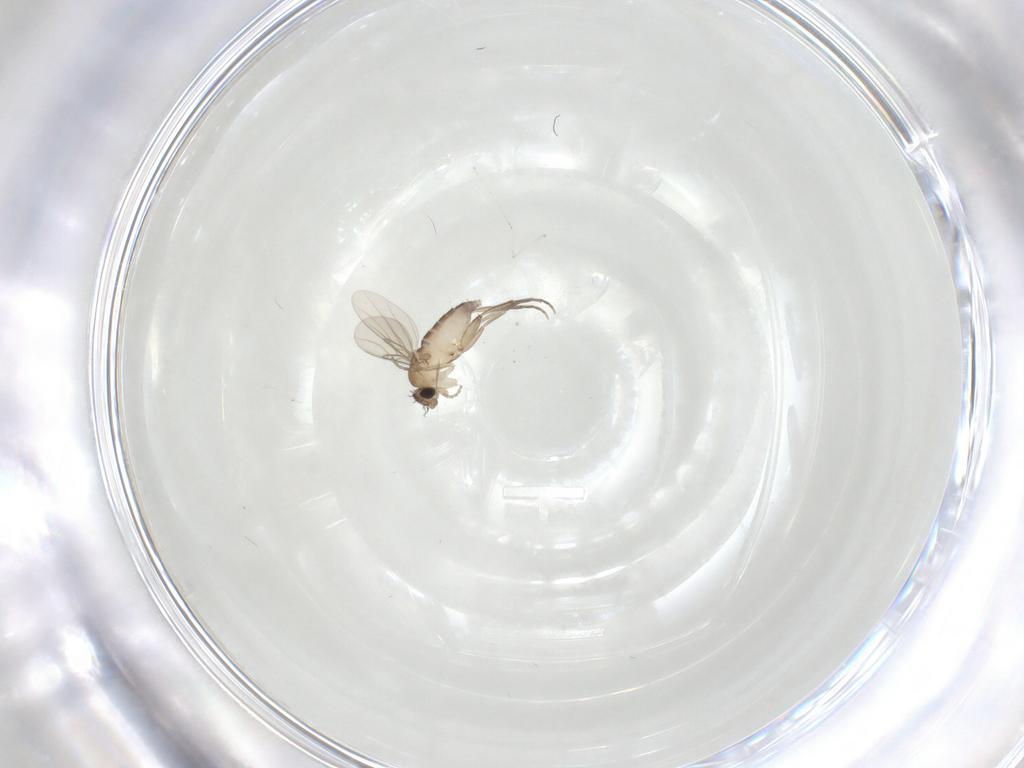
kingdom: Animalia
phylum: Arthropoda
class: Insecta
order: Diptera
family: Cecidomyiidae
